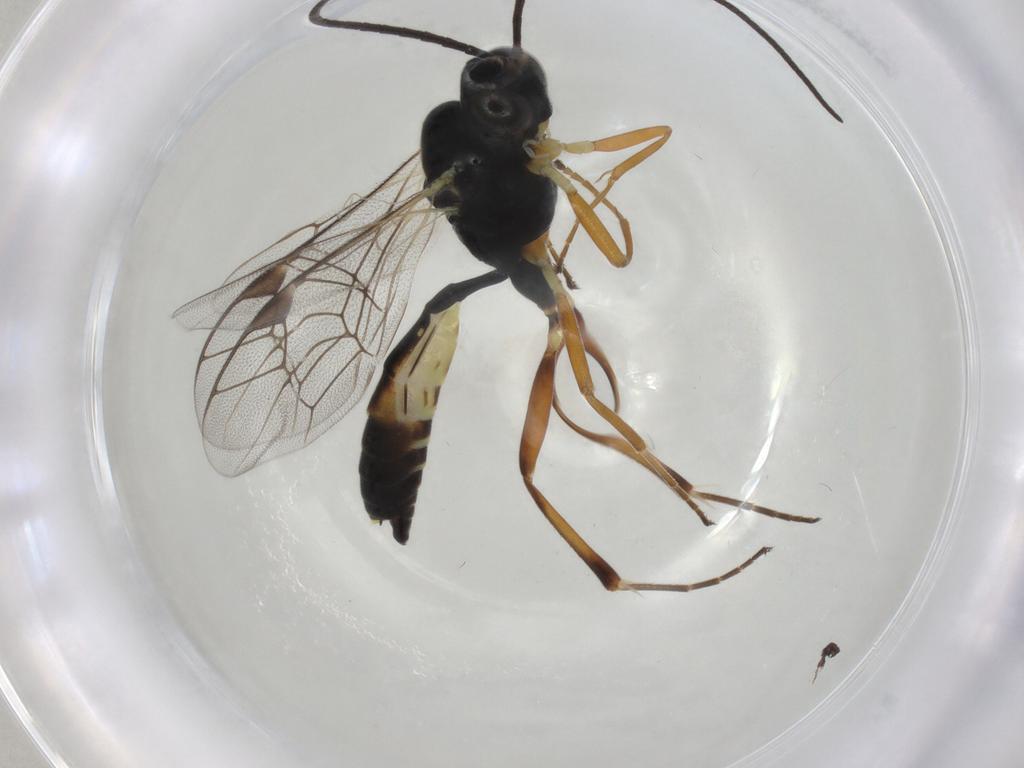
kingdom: Animalia
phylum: Arthropoda
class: Insecta
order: Hymenoptera
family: Ichneumonidae
